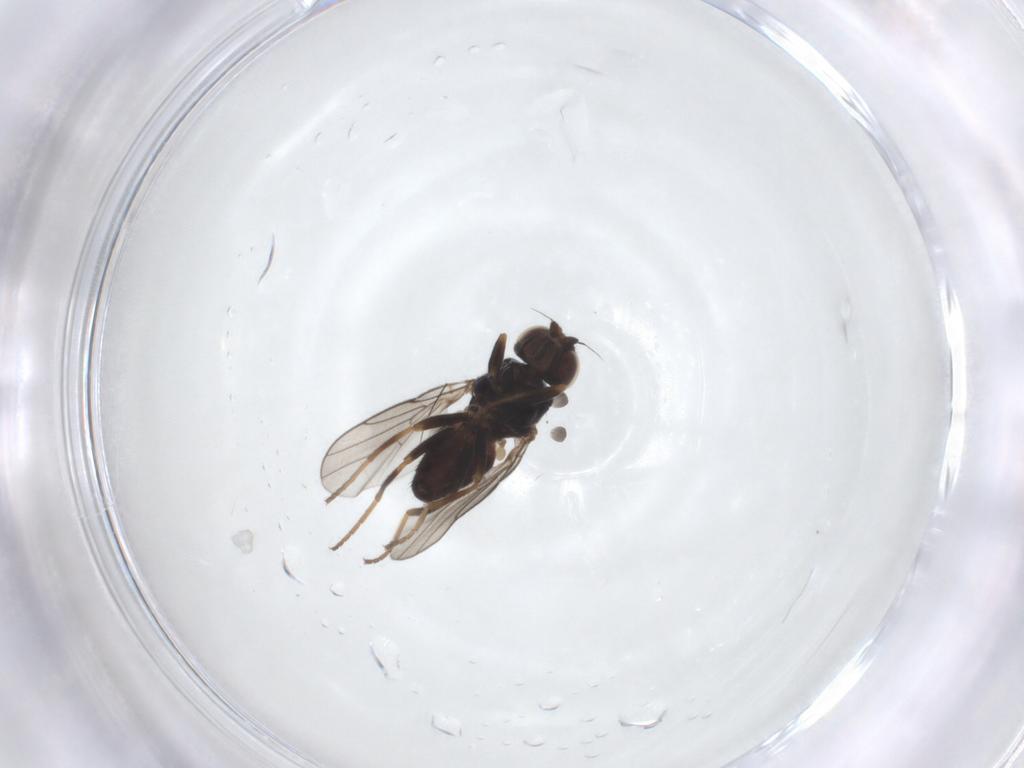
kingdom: Animalia
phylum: Arthropoda
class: Insecta
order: Diptera
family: Chloropidae
